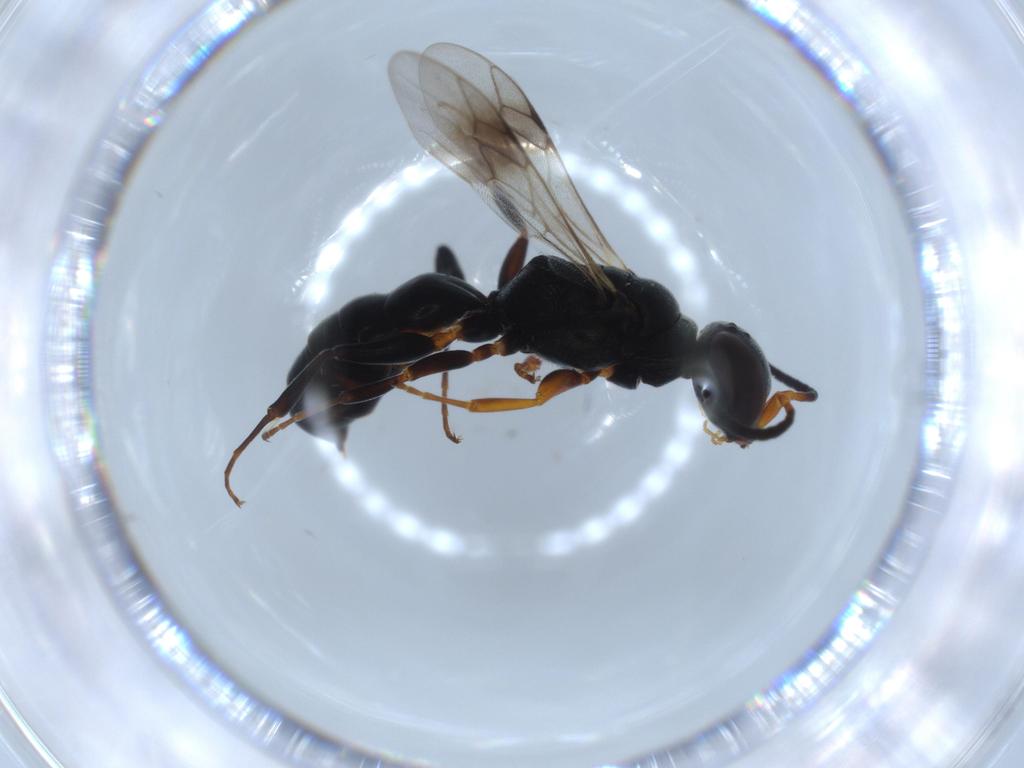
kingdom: Animalia
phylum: Arthropoda
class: Insecta
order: Hymenoptera
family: Crabronidae
